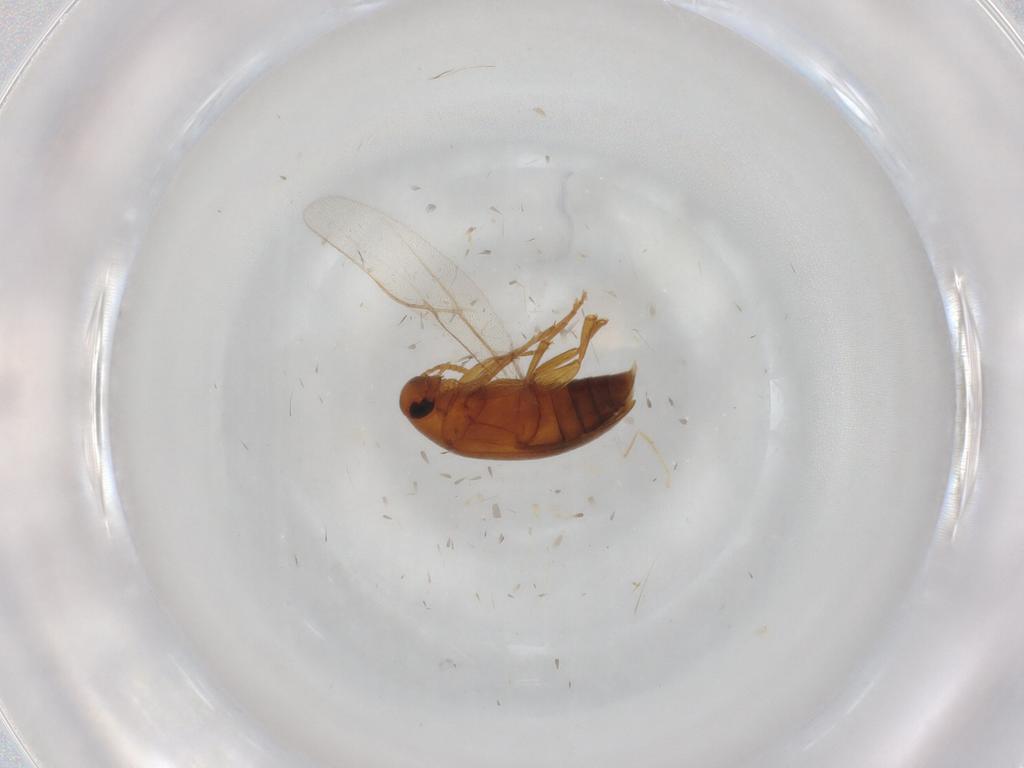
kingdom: Animalia
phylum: Arthropoda
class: Insecta
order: Coleoptera
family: Scraptiidae
